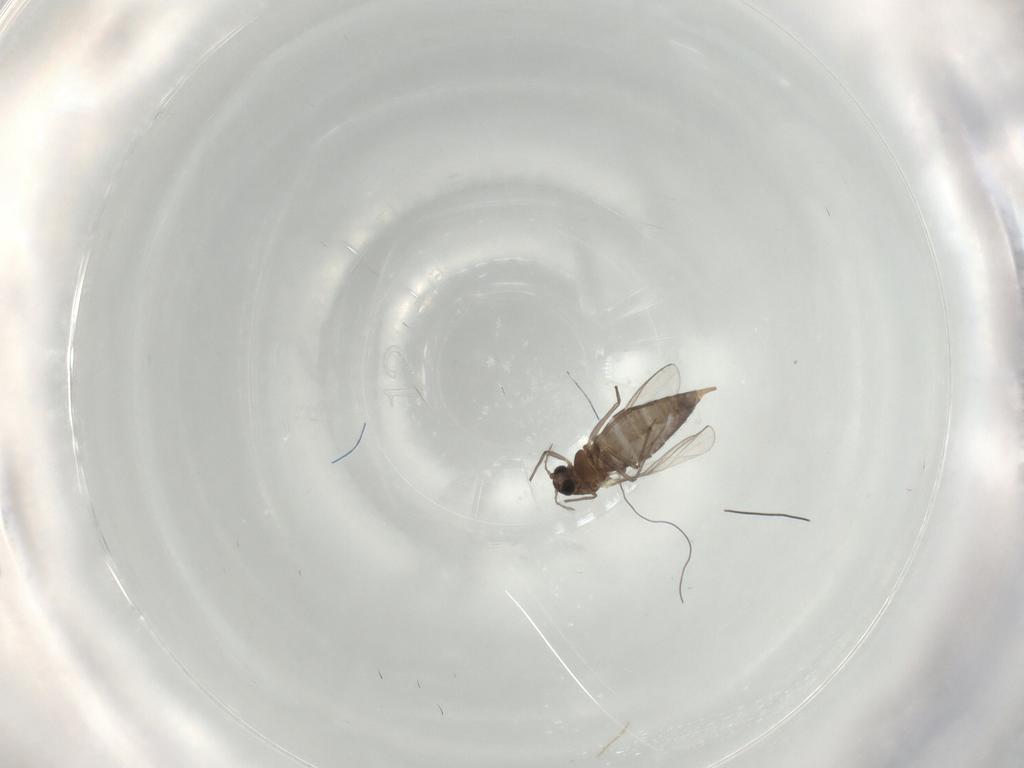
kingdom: Animalia
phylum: Arthropoda
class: Insecta
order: Diptera
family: Chironomidae
